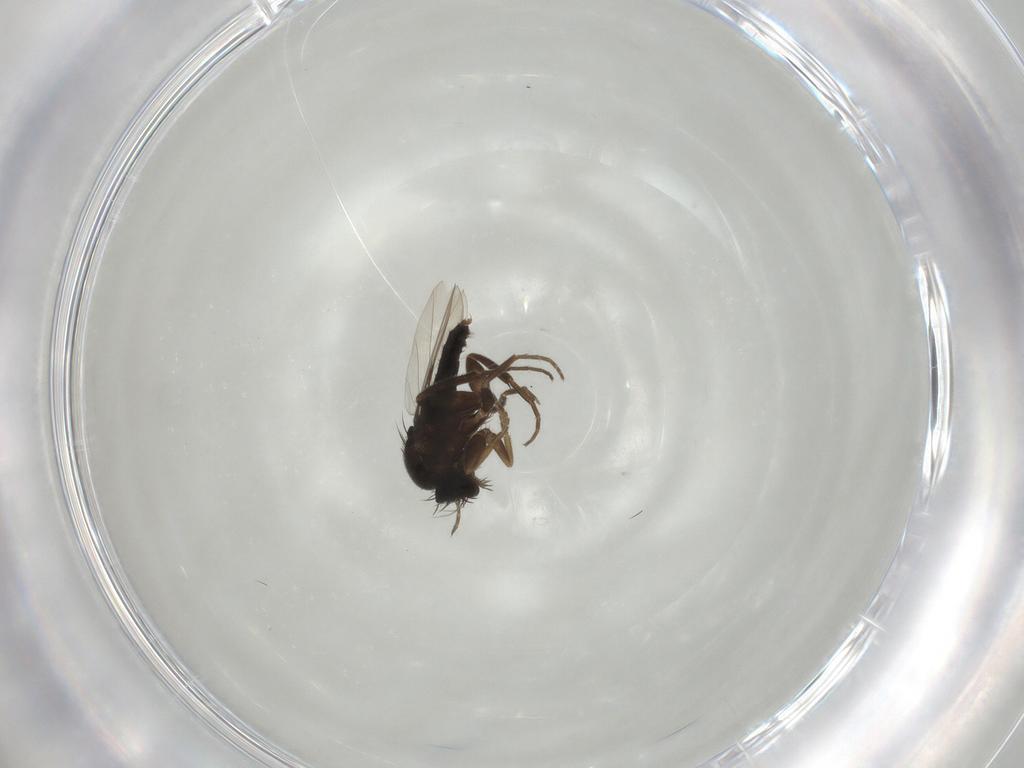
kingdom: Animalia
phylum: Arthropoda
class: Insecta
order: Diptera
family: Phoridae
